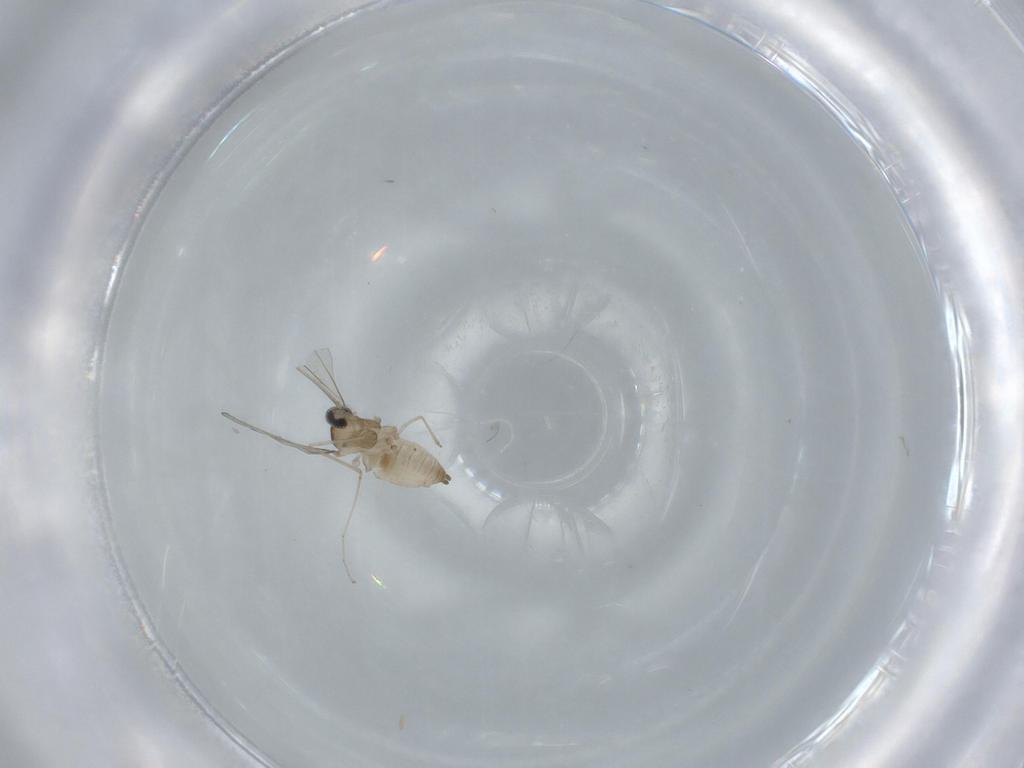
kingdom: Animalia
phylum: Arthropoda
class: Insecta
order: Diptera
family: Cecidomyiidae
